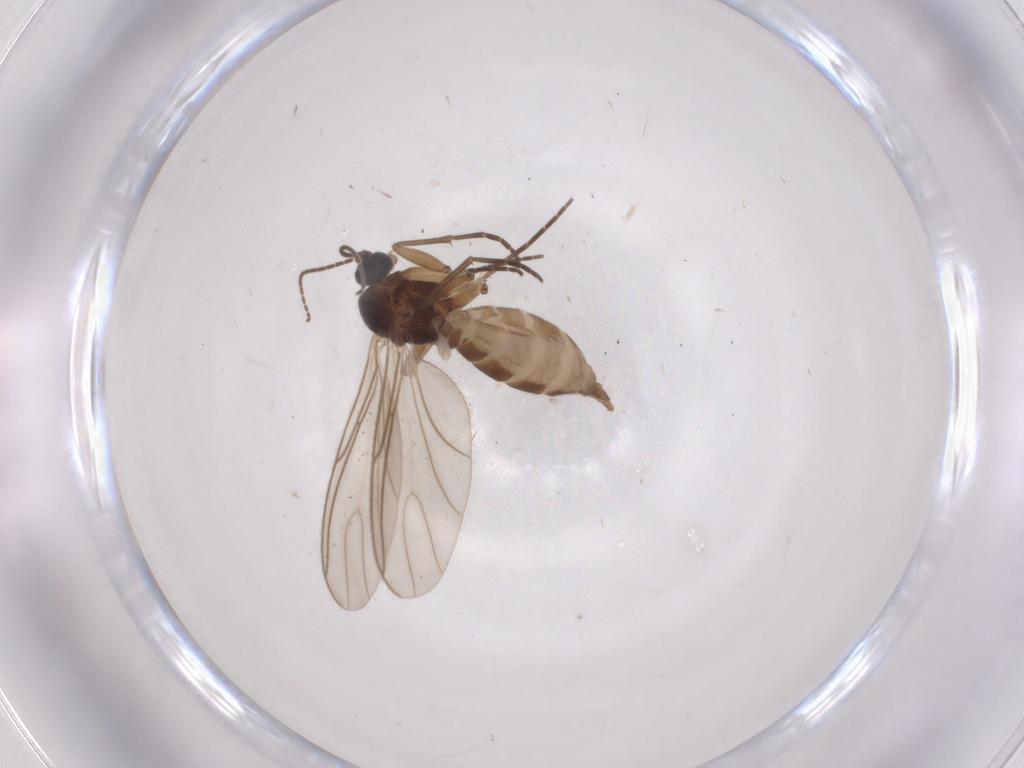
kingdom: Animalia
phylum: Arthropoda
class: Insecta
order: Diptera
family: Sciaridae
